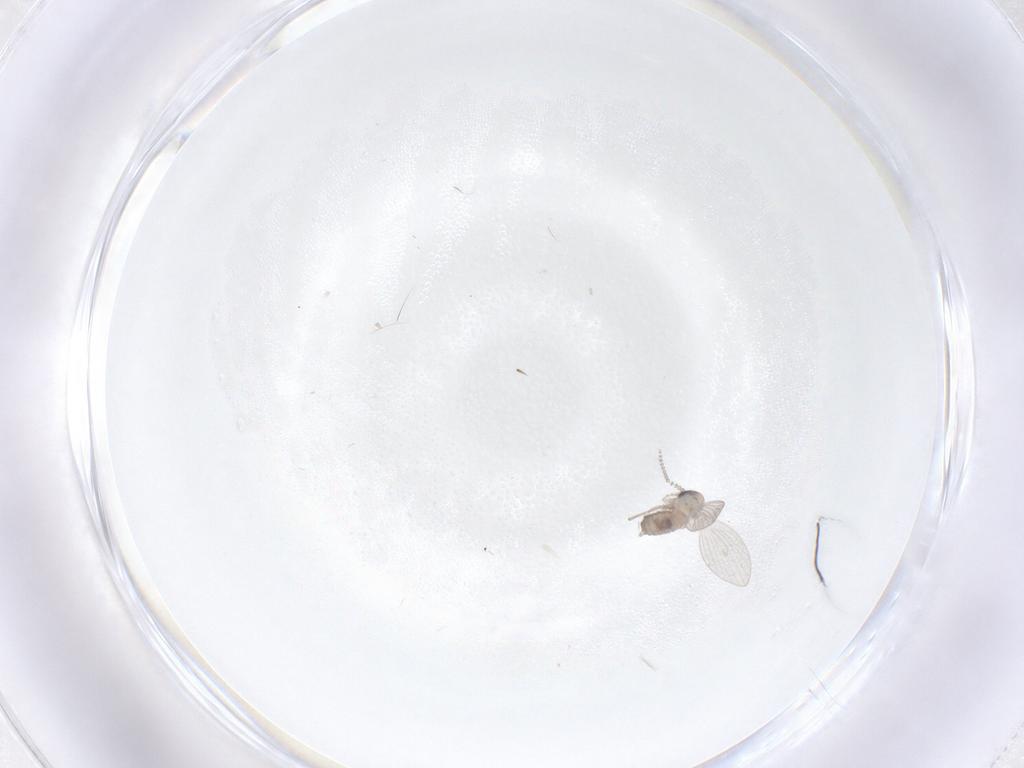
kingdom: Animalia
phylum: Arthropoda
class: Insecta
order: Diptera
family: Psychodidae
